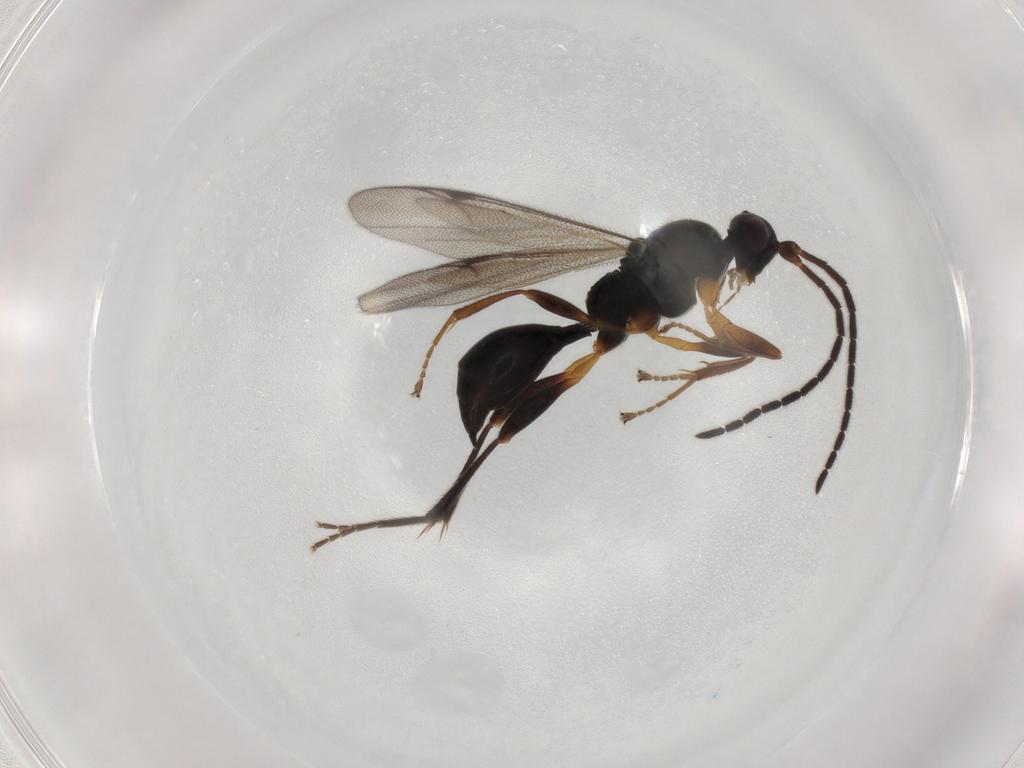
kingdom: Animalia
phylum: Arthropoda
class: Insecta
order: Hymenoptera
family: Proctotrupidae
